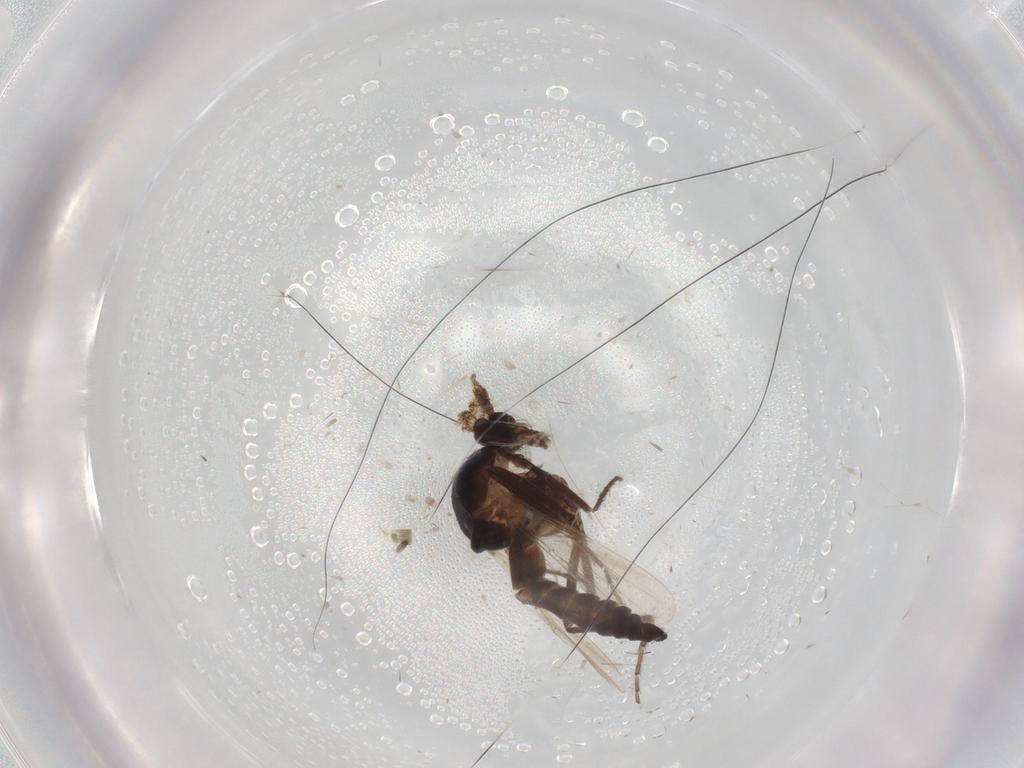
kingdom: Animalia
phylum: Arthropoda
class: Insecta
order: Diptera
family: Ceratopogonidae
